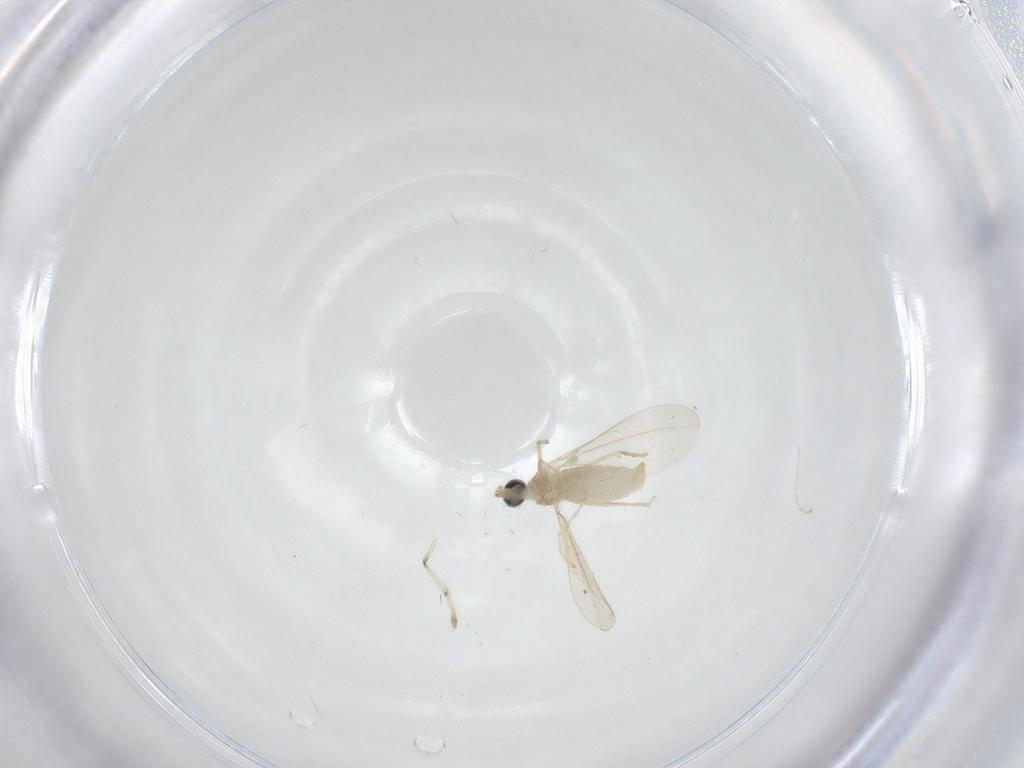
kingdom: Animalia
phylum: Arthropoda
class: Insecta
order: Diptera
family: Cecidomyiidae
